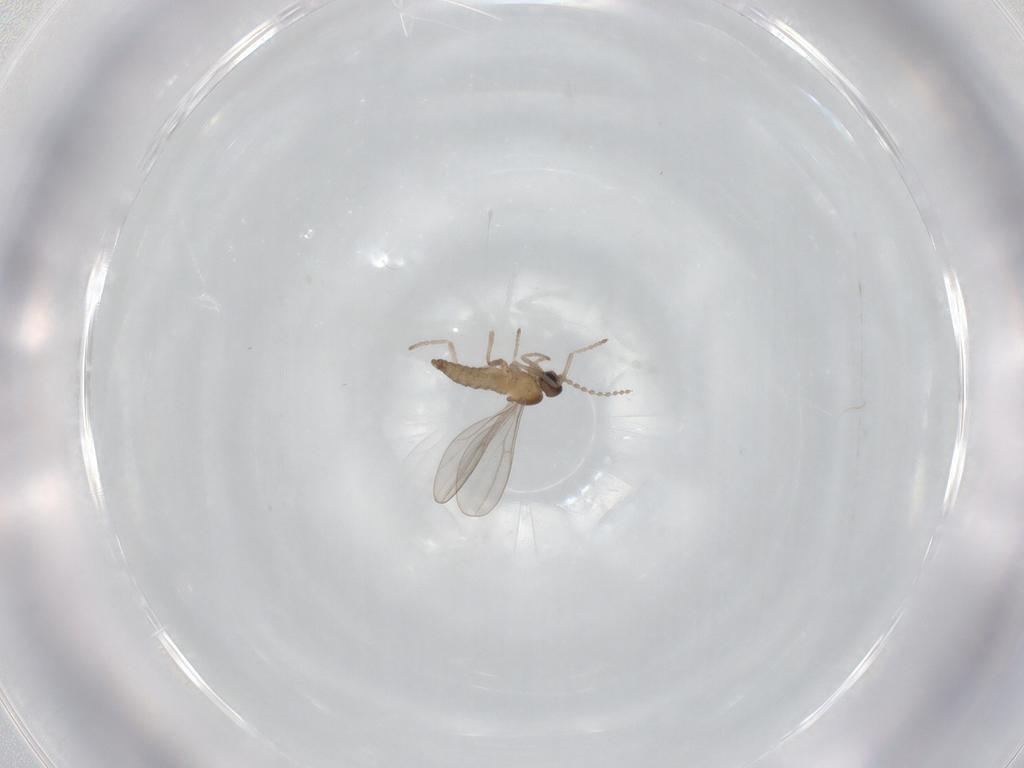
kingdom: Animalia
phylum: Arthropoda
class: Insecta
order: Diptera
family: Cecidomyiidae
